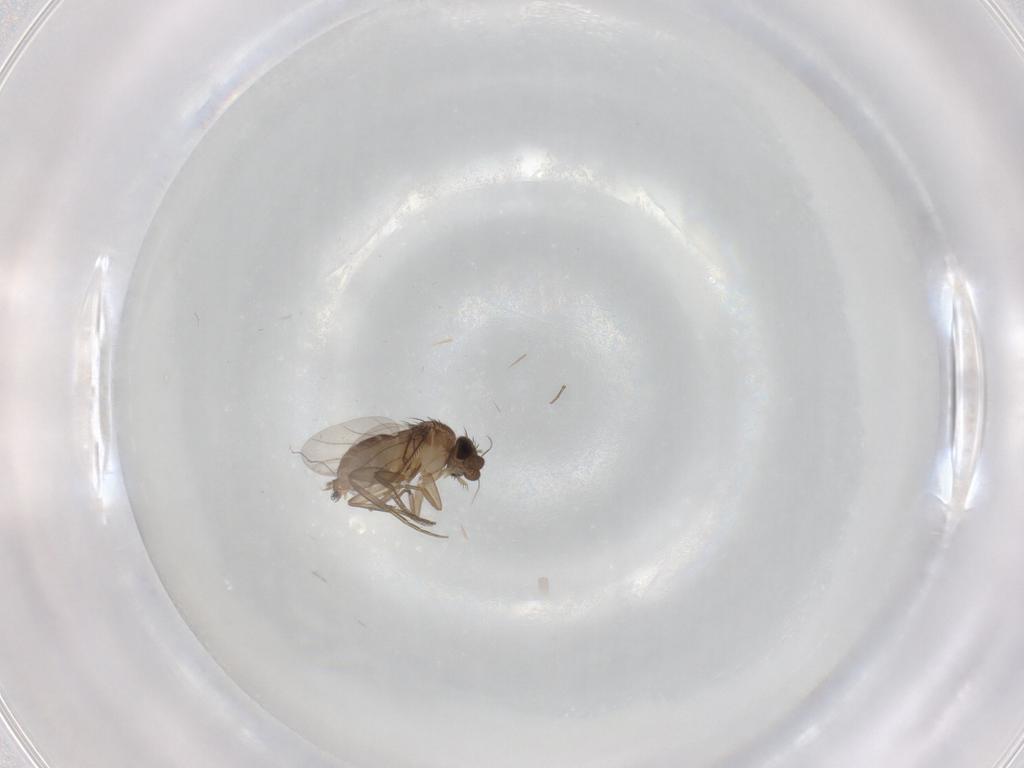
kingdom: Animalia
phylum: Arthropoda
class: Insecta
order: Diptera
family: Phoridae
